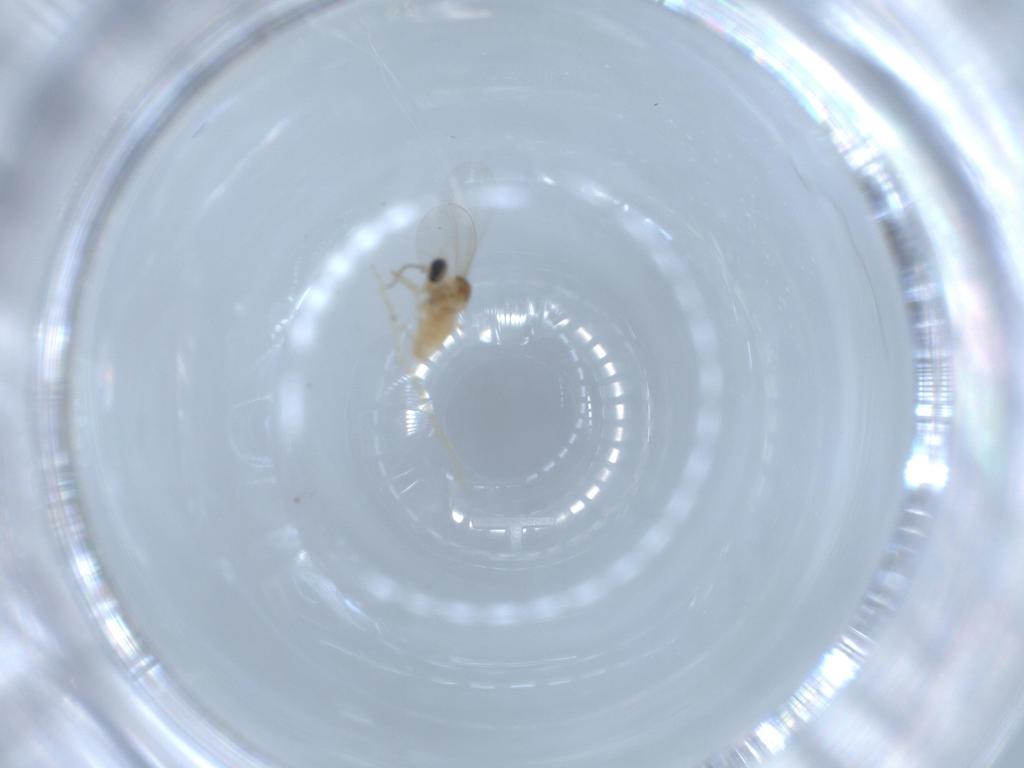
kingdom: Animalia
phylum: Arthropoda
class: Insecta
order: Diptera
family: Cecidomyiidae
